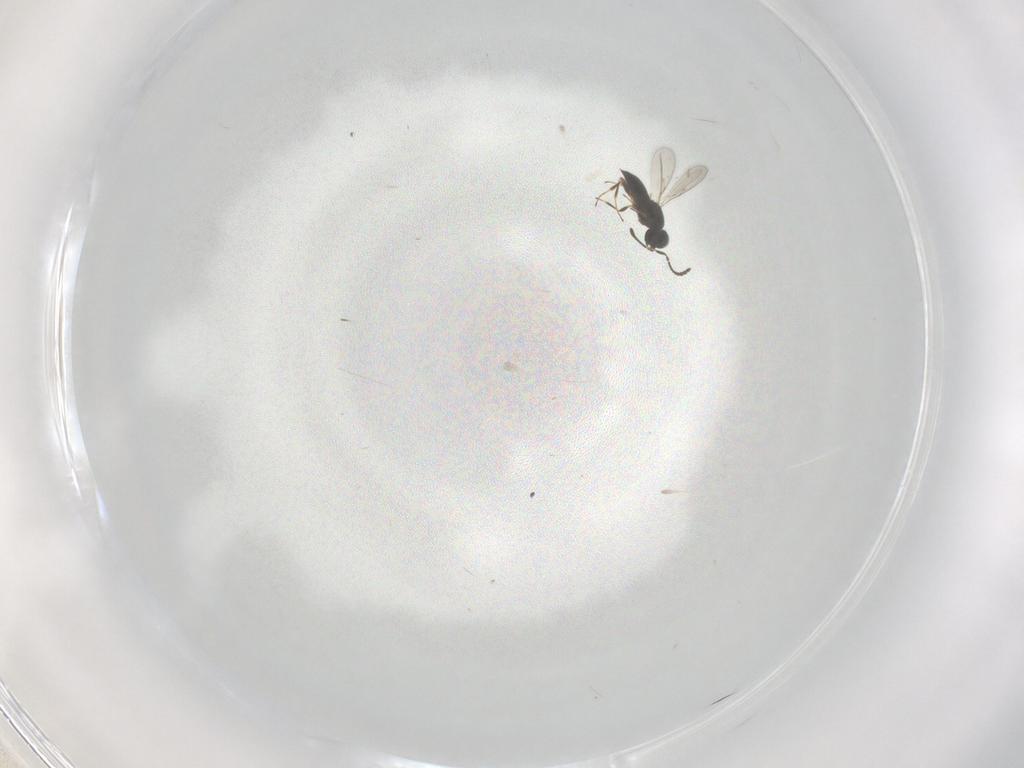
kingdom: Animalia
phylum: Arthropoda
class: Insecta
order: Hymenoptera
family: Scelionidae
